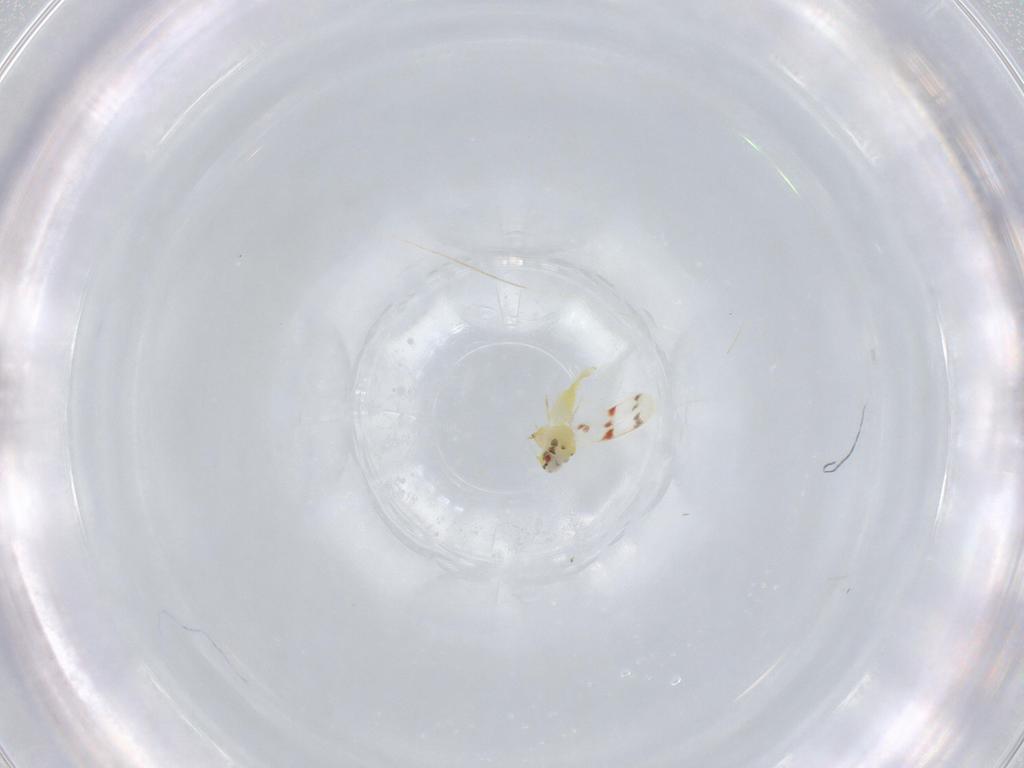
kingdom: Animalia
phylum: Arthropoda
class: Insecta
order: Hemiptera
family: Aleyrodidae
